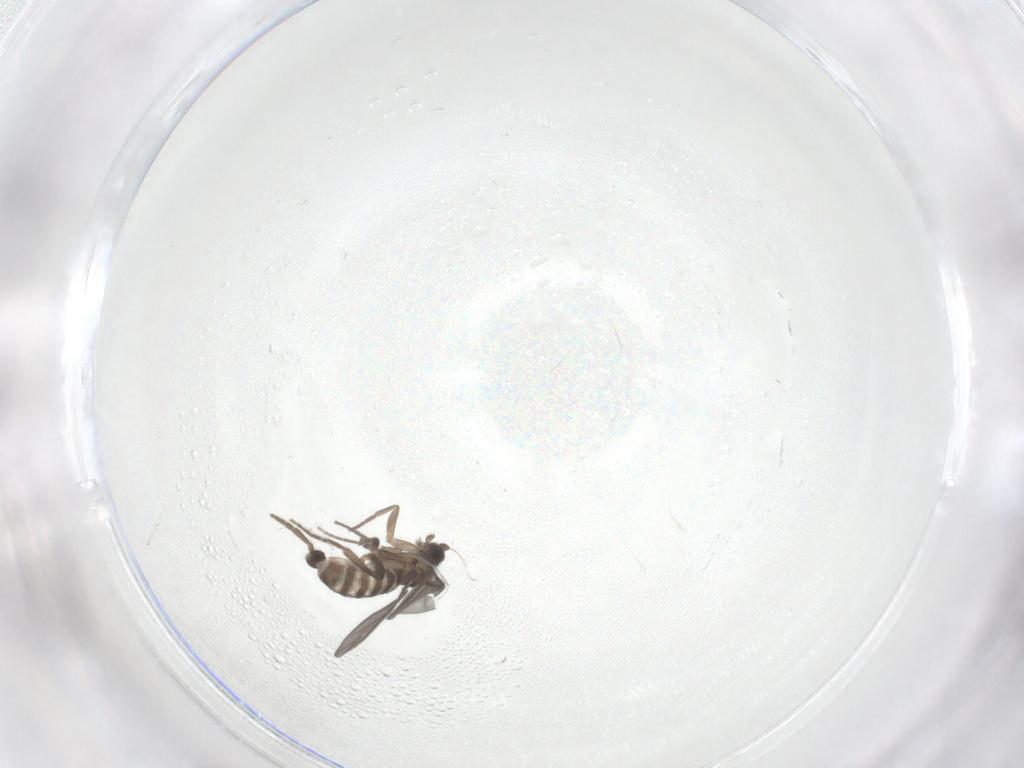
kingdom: Animalia
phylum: Arthropoda
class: Insecta
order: Diptera
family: Phoridae
